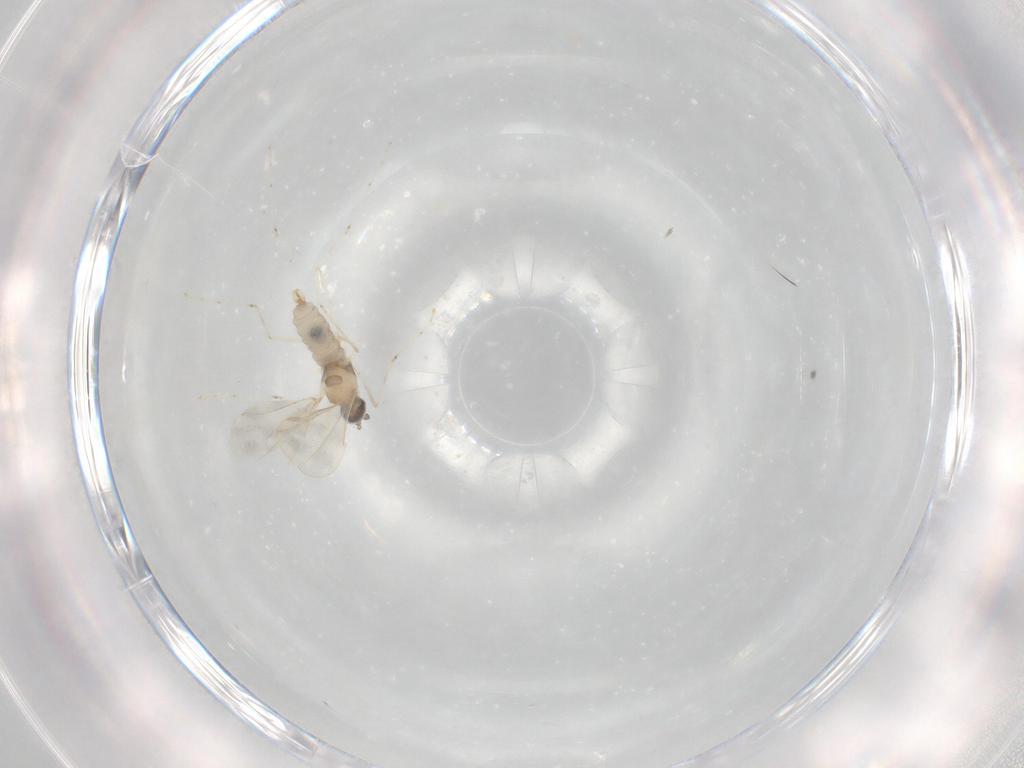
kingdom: Animalia
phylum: Arthropoda
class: Insecta
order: Diptera
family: Cecidomyiidae
